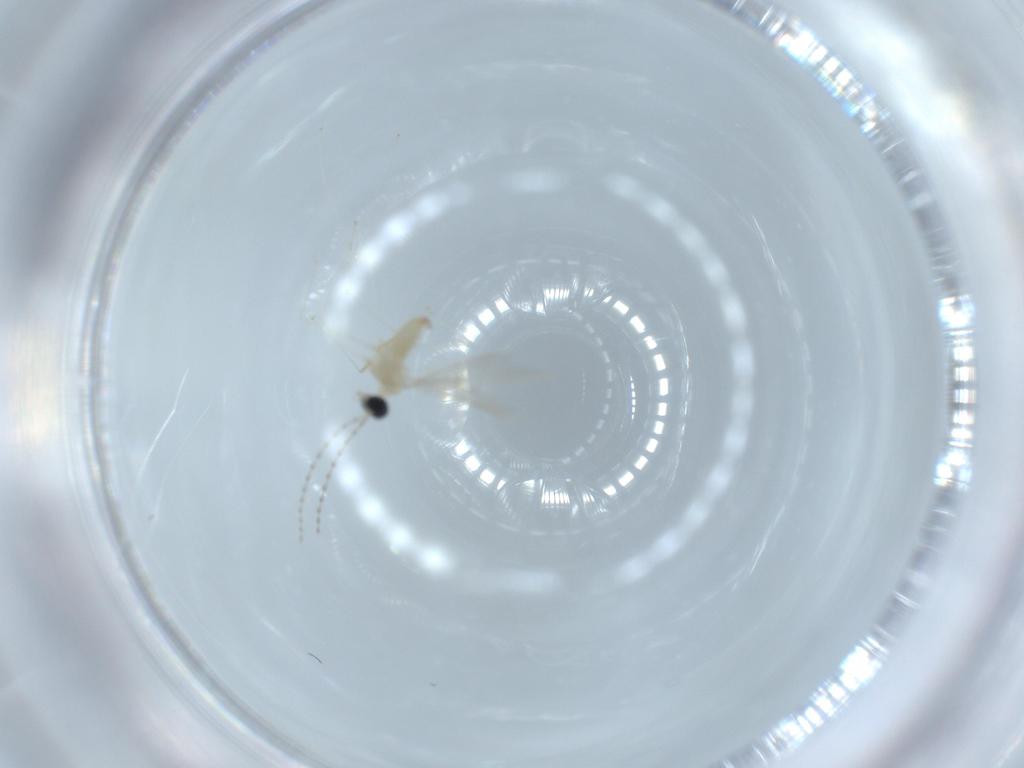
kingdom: Animalia
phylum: Arthropoda
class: Insecta
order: Diptera
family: Cecidomyiidae
